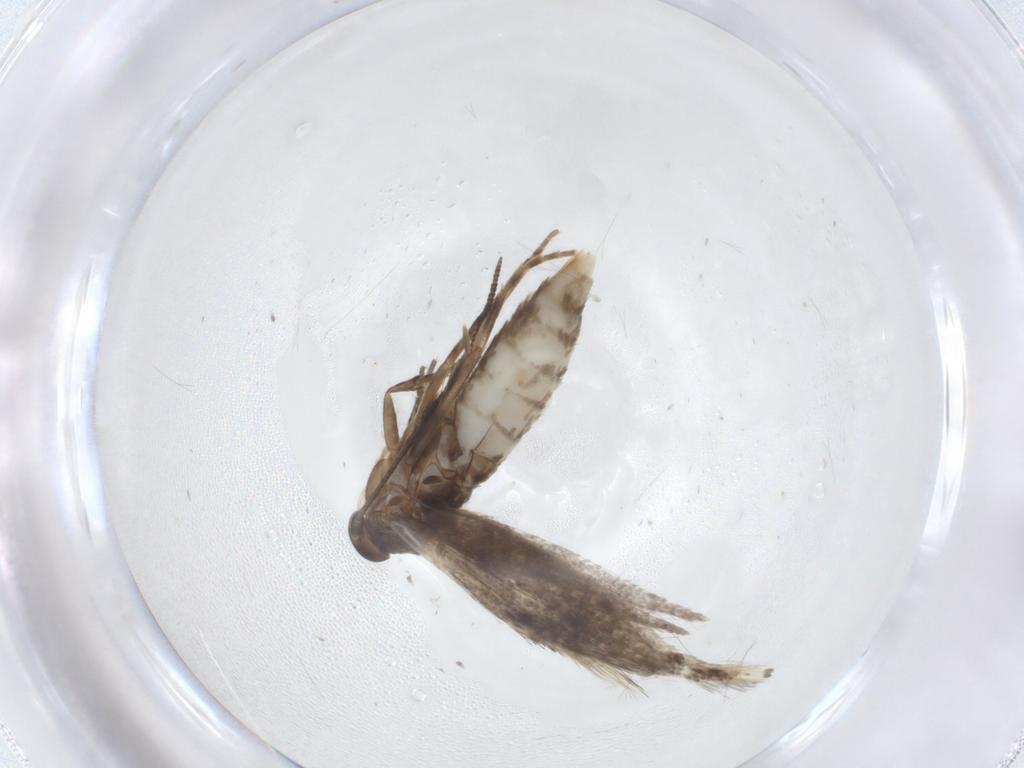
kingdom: Animalia
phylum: Arthropoda
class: Insecta
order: Lepidoptera
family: Elachistidae
